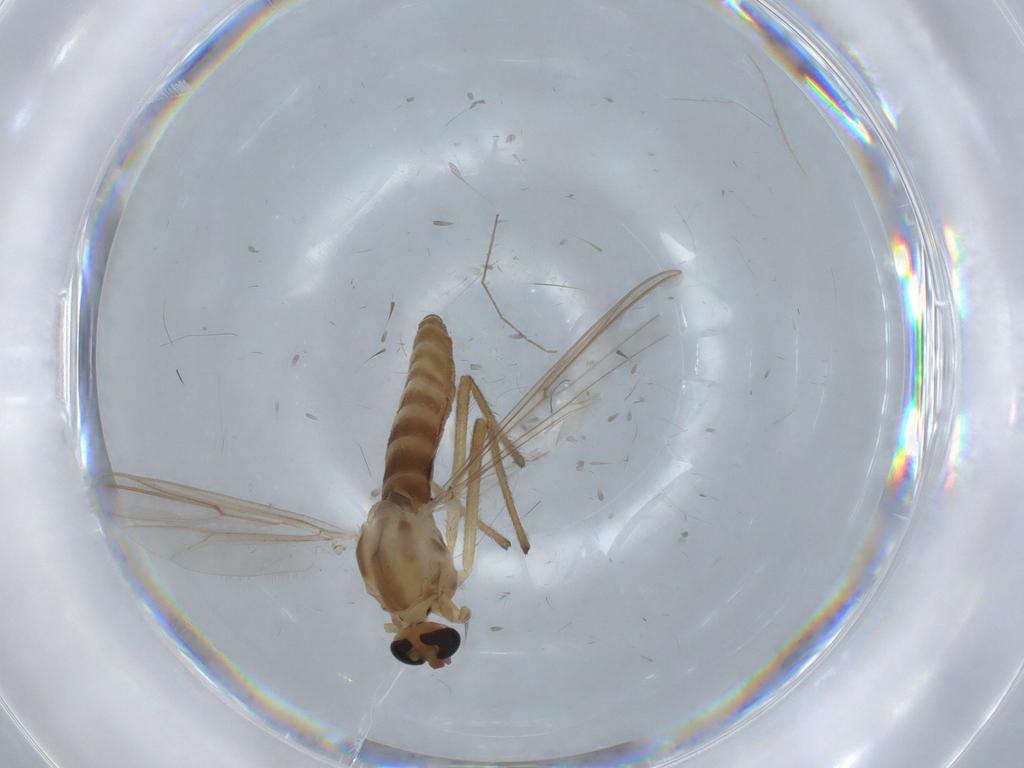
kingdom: Animalia
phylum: Arthropoda
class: Insecta
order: Diptera
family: Chironomidae
